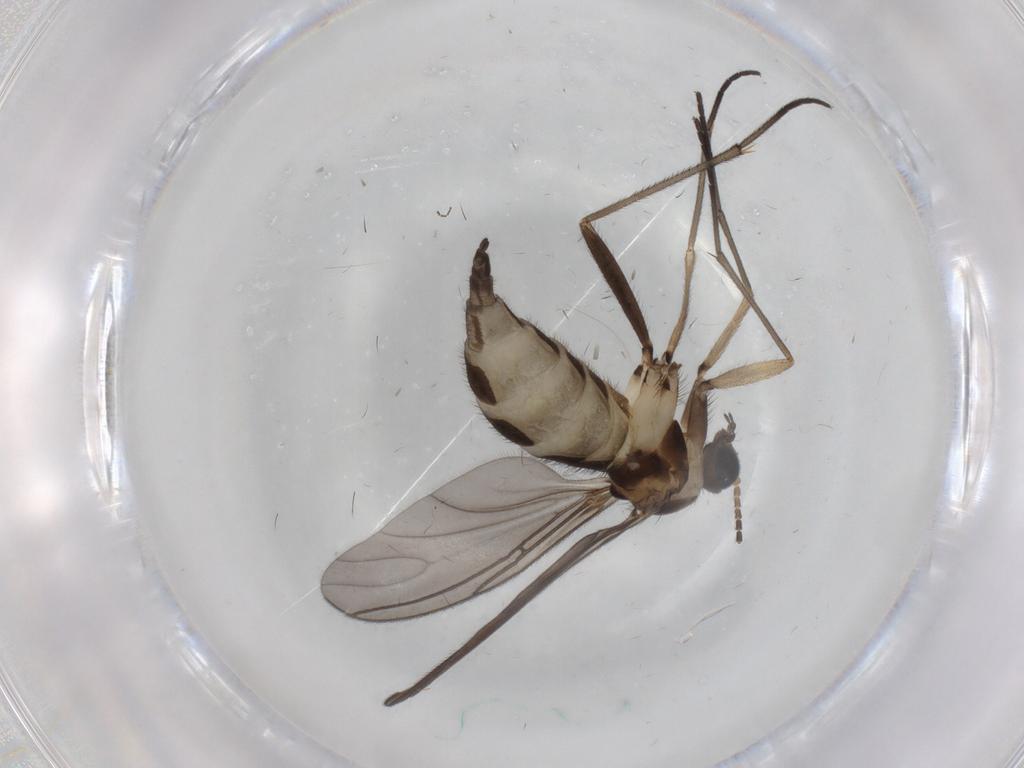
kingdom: Animalia
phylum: Arthropoda
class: Insecta
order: Diptera
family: Sciaridae
